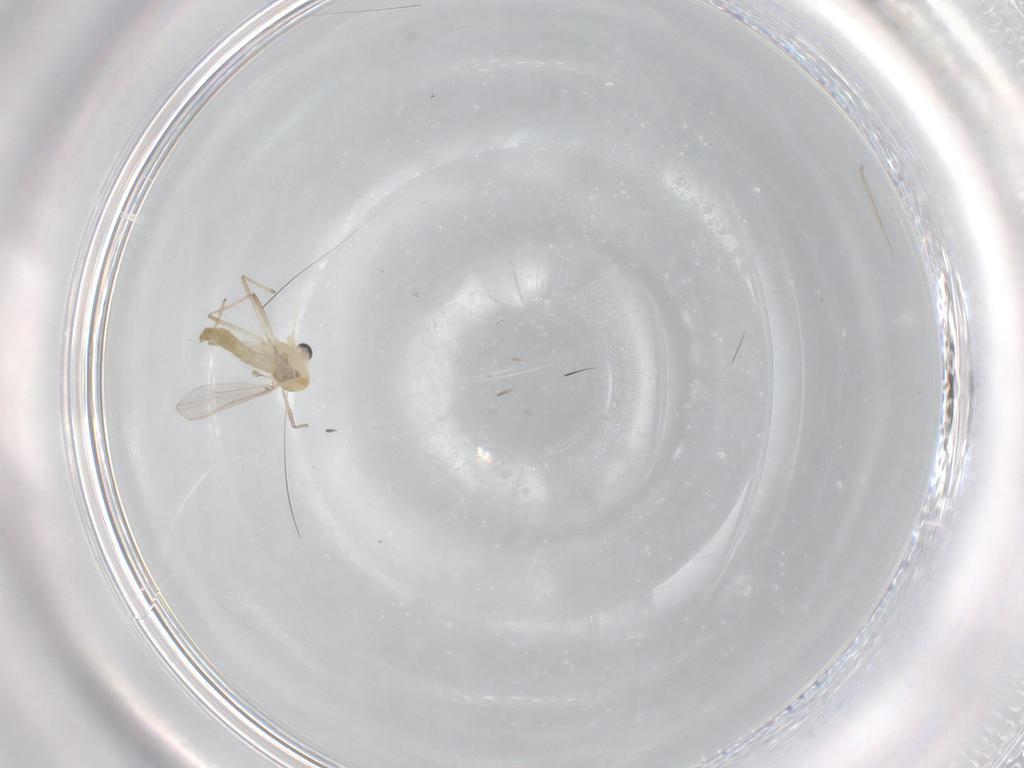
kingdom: Animalia
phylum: Arthropoda
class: Insecta
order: Diptera
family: Chironomidae
